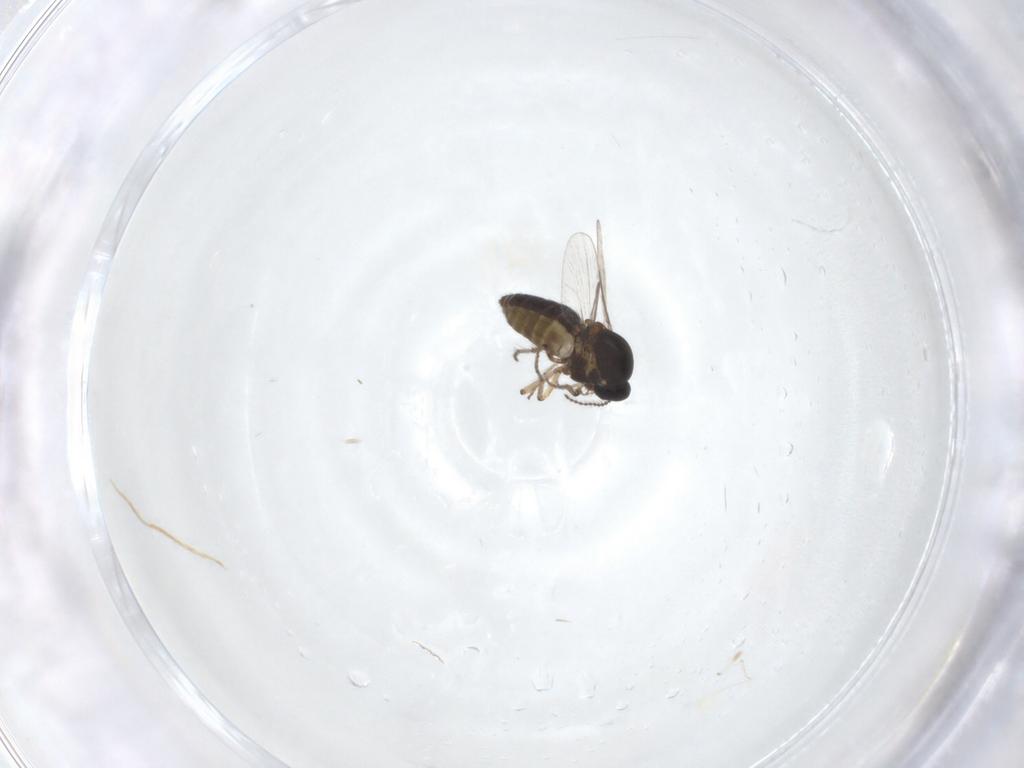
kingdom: Animalia
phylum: Arthropoda
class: Insecta
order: Diptera
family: Ceratopogonidae
